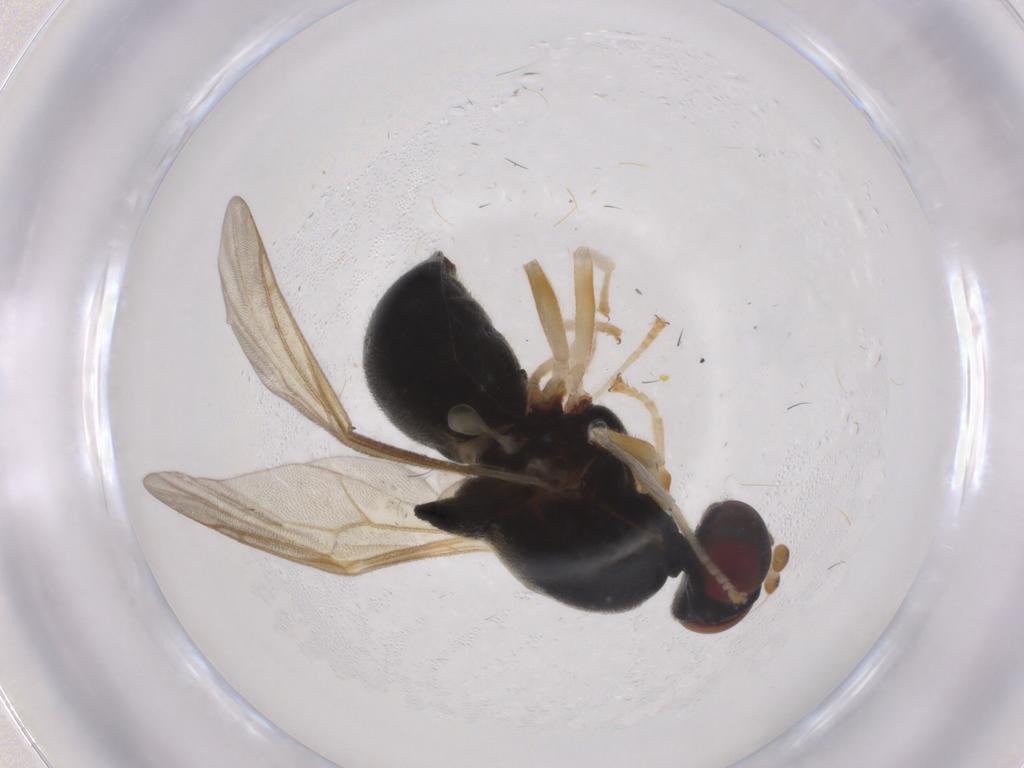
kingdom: Animalia
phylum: Arthropoda
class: Insecta
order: Diptera
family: Stratiomyidae
